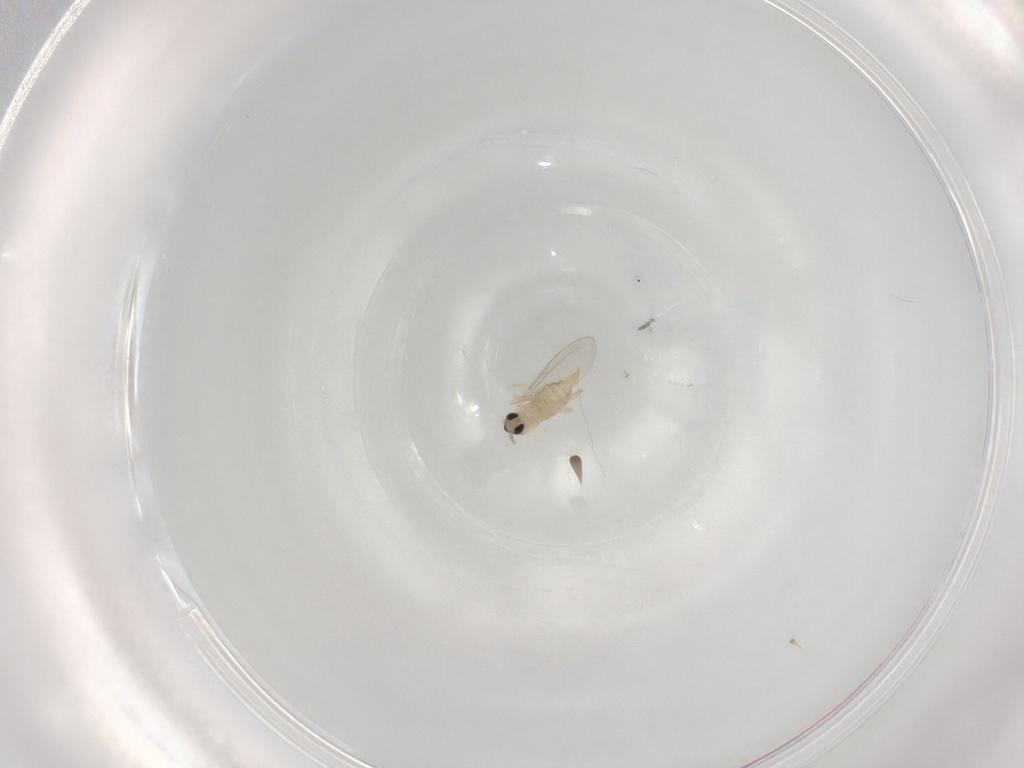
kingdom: Animalia
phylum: Arthropoda
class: Insecta
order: Diptera
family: Cecidomyiidae
